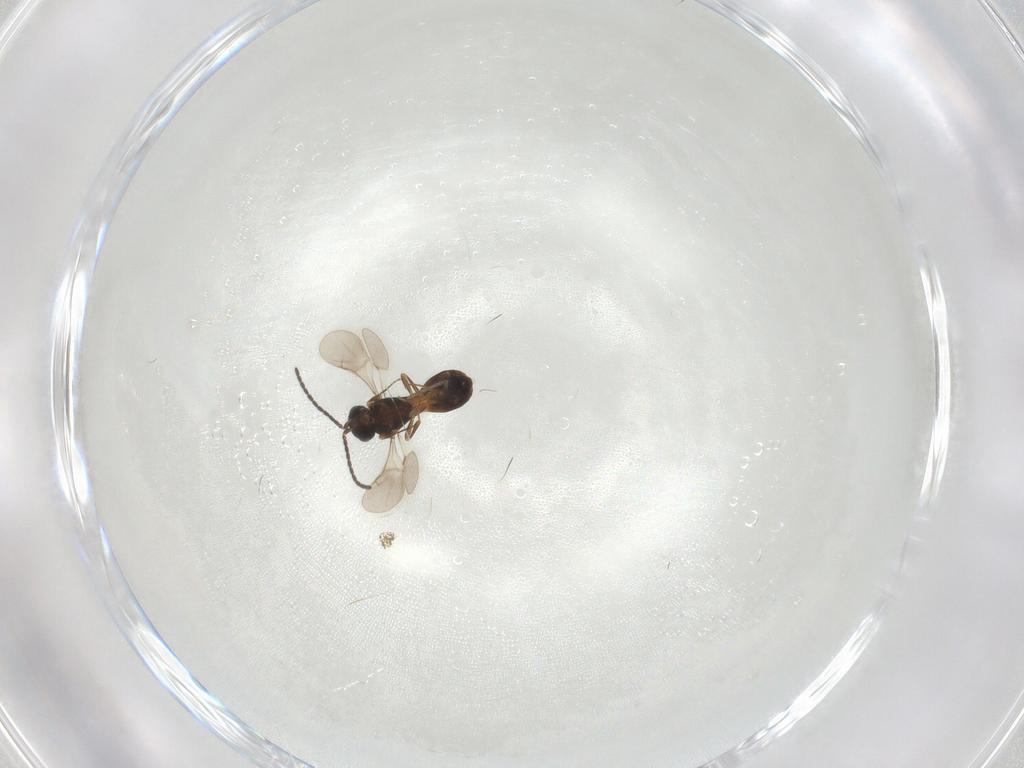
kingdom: Animalia
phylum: Arthropoda
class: Insecta
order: Hymenoptera
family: Scelionidae
